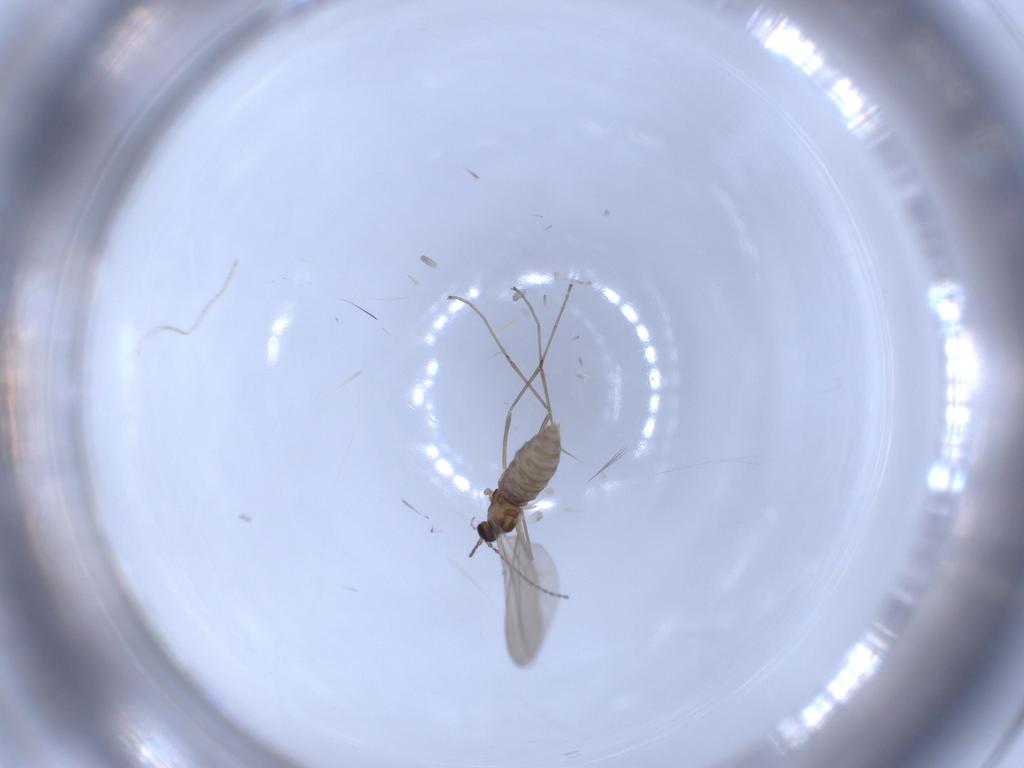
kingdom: Animalia
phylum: Arthropoda
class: Insecta
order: Diptera
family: Cecidomyiidae
